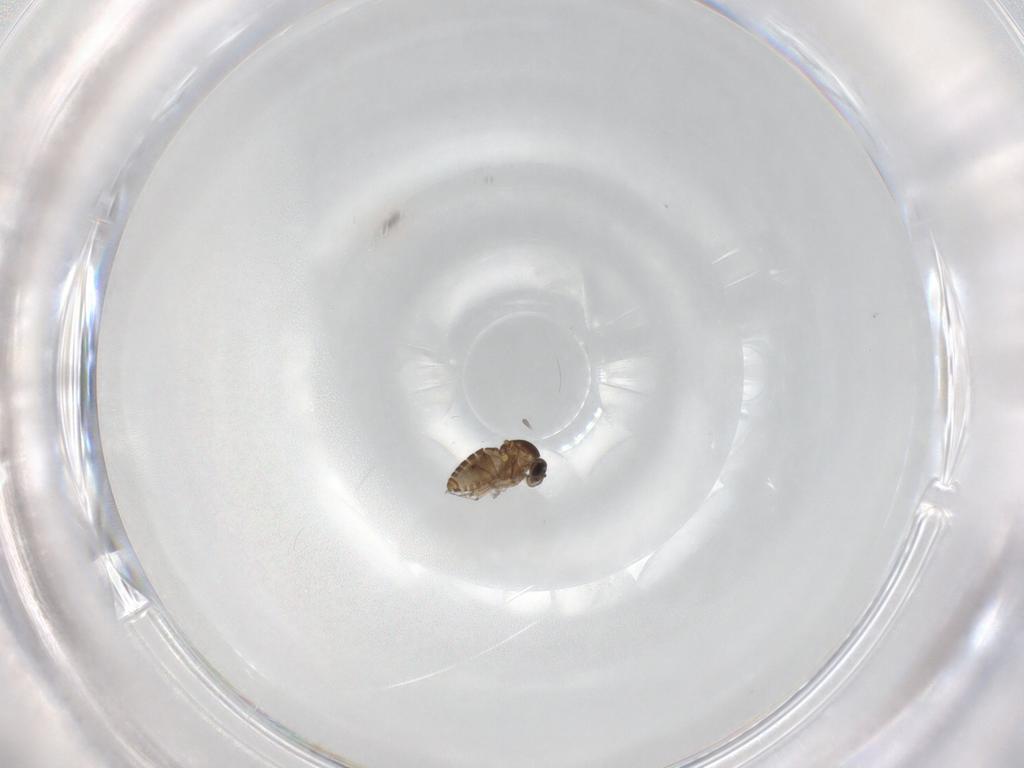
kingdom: Animalia
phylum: Arthropoda
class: Insecta
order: Diptera
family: Ceratopogonidae
